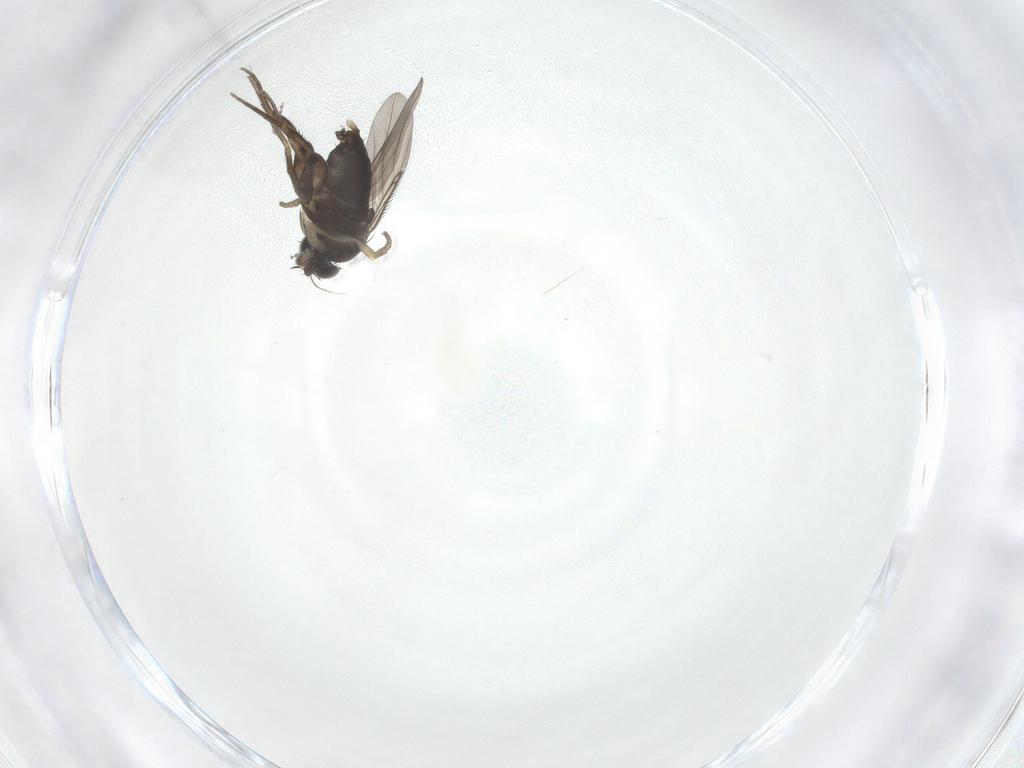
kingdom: Animalia
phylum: Arthropoda
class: Insecta
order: Diptera
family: Phoridae
